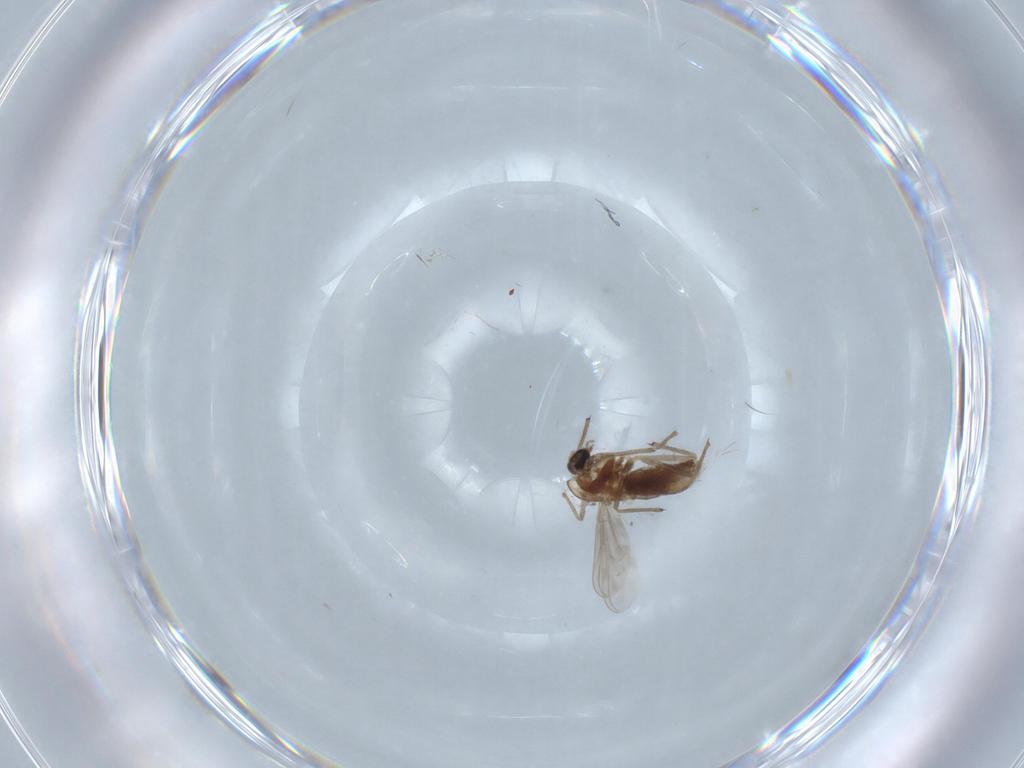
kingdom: Animalia
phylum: Arthropoda
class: Insecta
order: Diptera
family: Chironomidae
